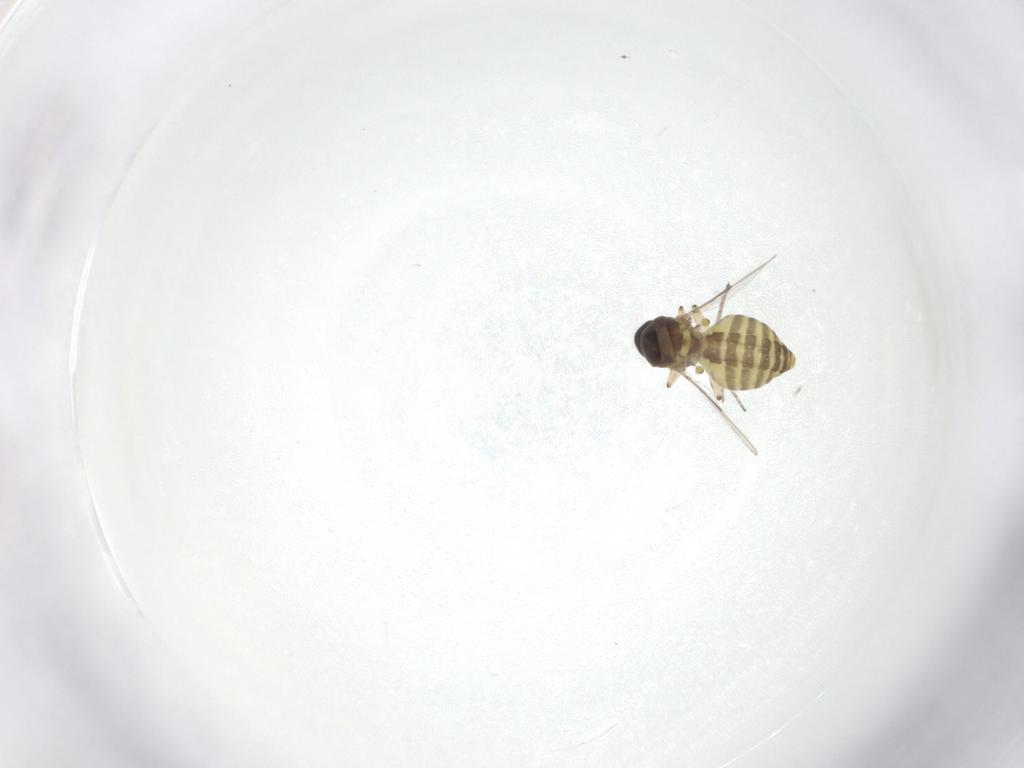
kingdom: Animalia
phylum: Arthropoda
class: Insecta
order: Diptera
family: Ceratopogonidae
